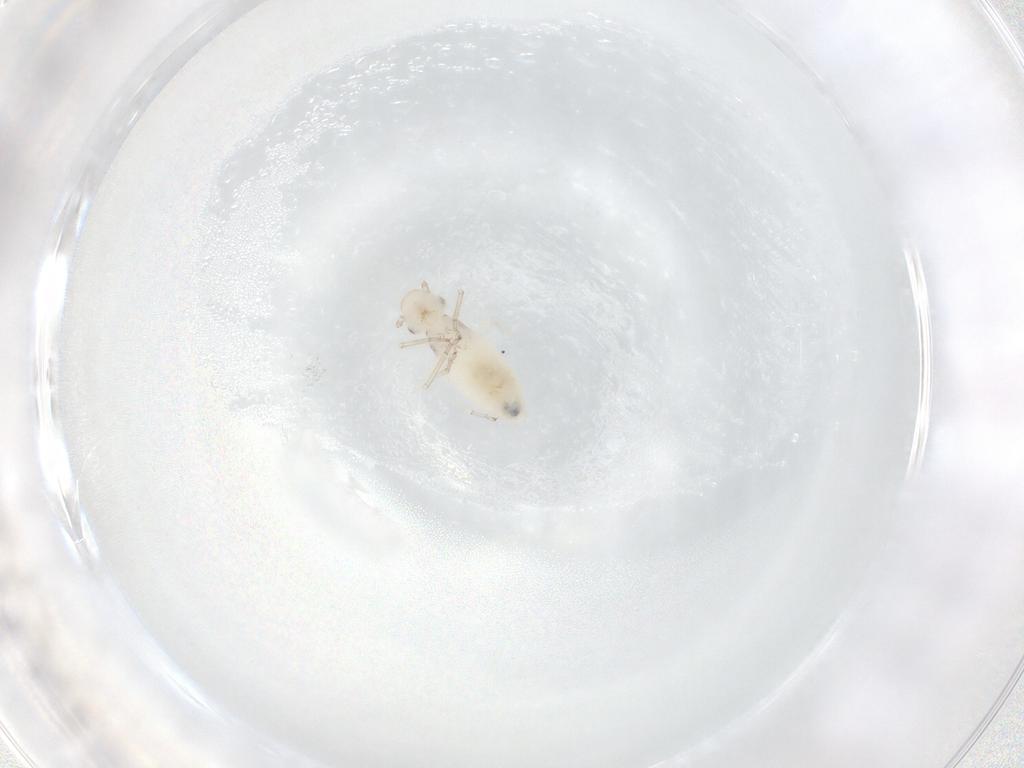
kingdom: Animalia
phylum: Arthropoda
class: Insecta
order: Psocodea
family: Caeciliusidae
